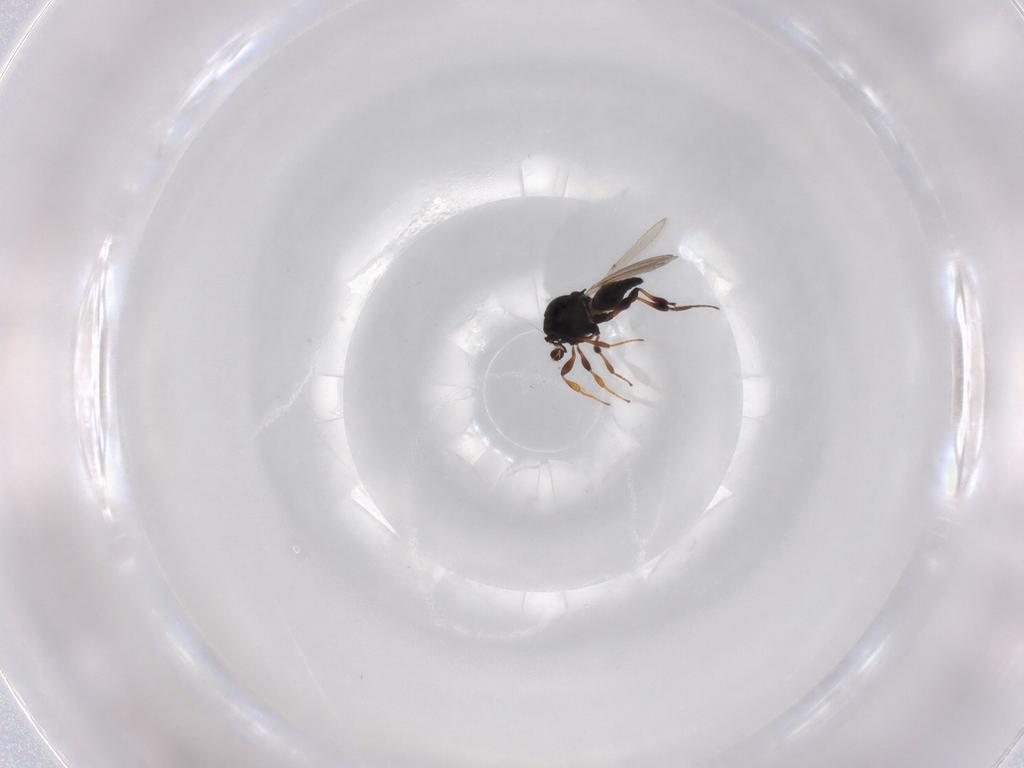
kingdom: Animalia
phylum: Arthropoda
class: Insecta
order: Hymenoptera
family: Platygastridae
